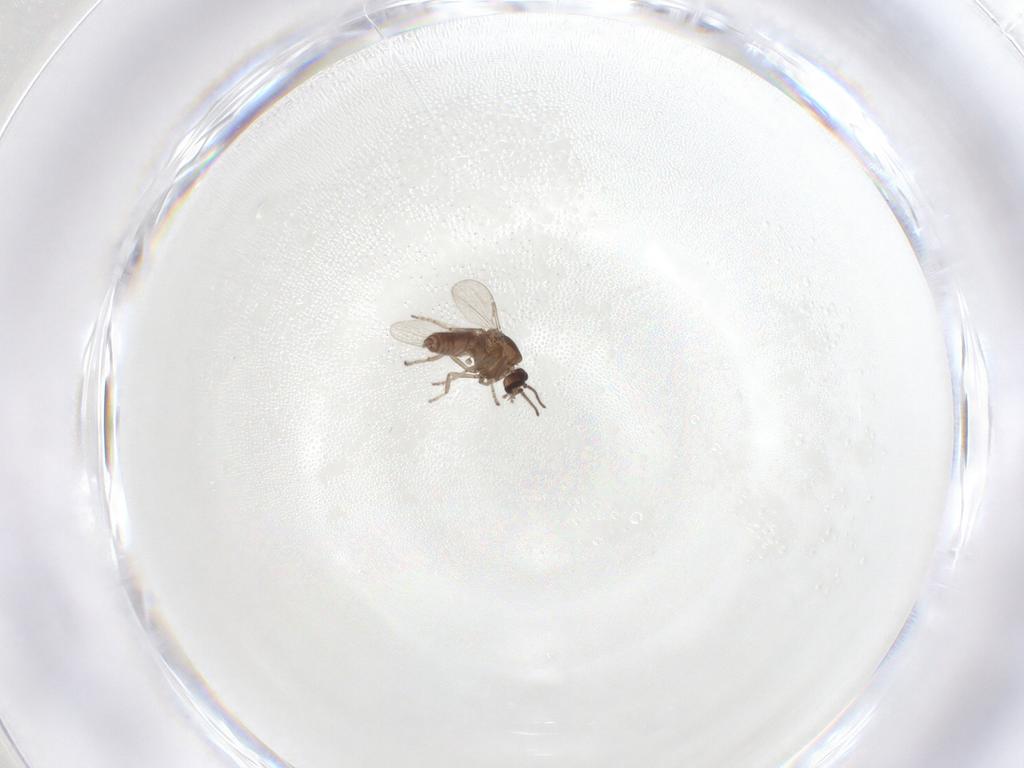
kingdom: Animalia
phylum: Arthropoda
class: Insecta
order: Diptera
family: Ceratopogonidae
